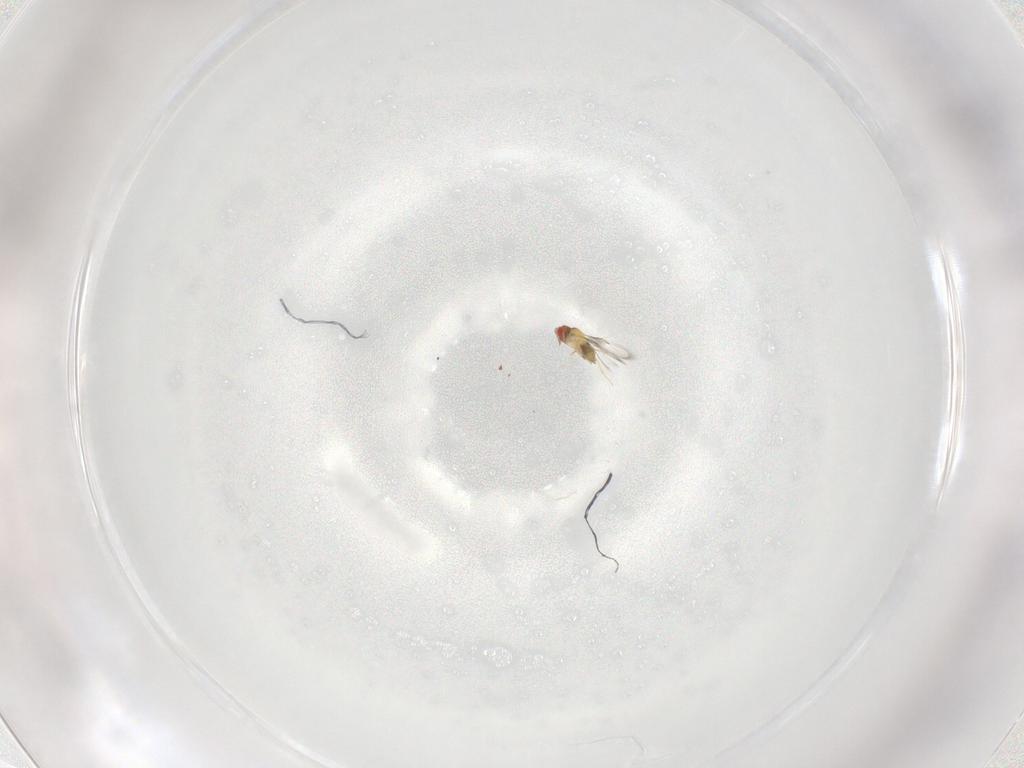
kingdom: Animalia
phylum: Arthropoda
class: Insecta
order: Hymenoptera
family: Trichogrammatidae
